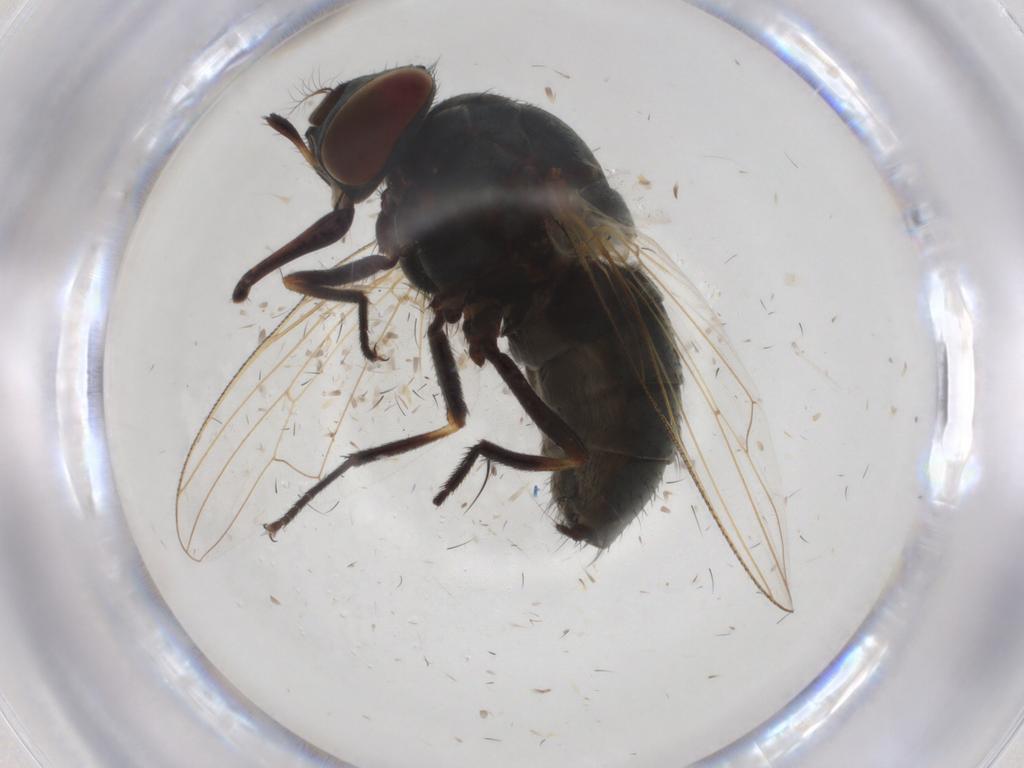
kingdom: Animalia
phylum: Arthropoda
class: Insecta
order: Diptera
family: Muscidae
